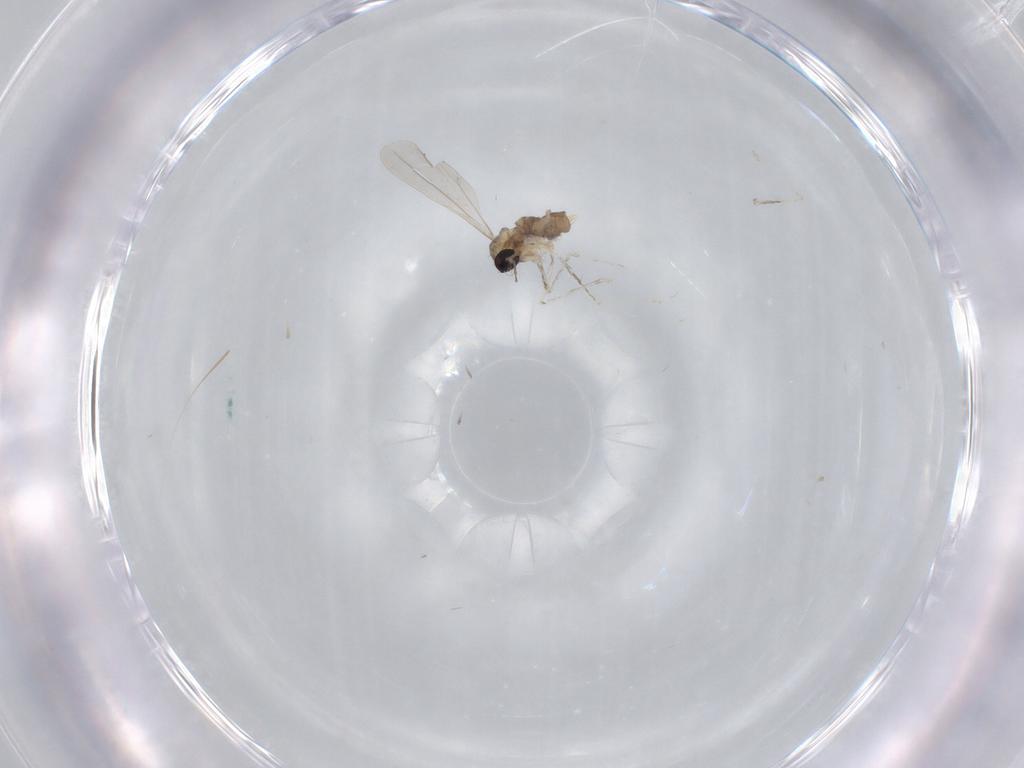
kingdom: Animalia
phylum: Arthropoda
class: Insecta
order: Diptera
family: Cecidomyiidae
